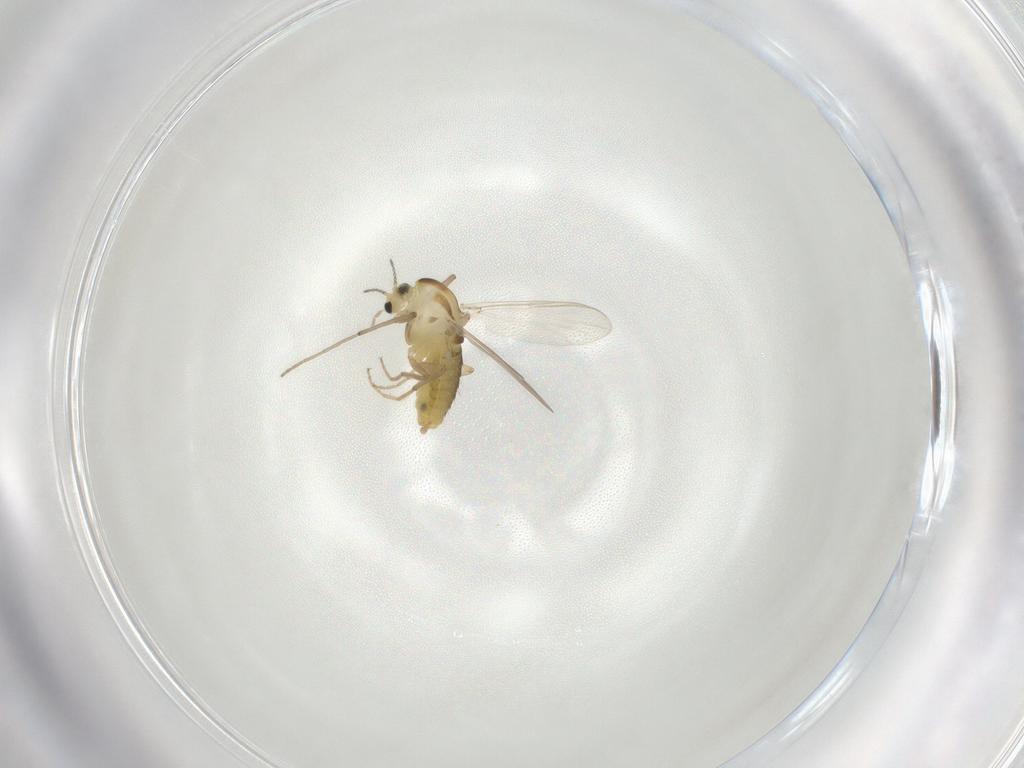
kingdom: Animalia
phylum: Arthropoda
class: Insecta
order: Diptera
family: Chironomidae
